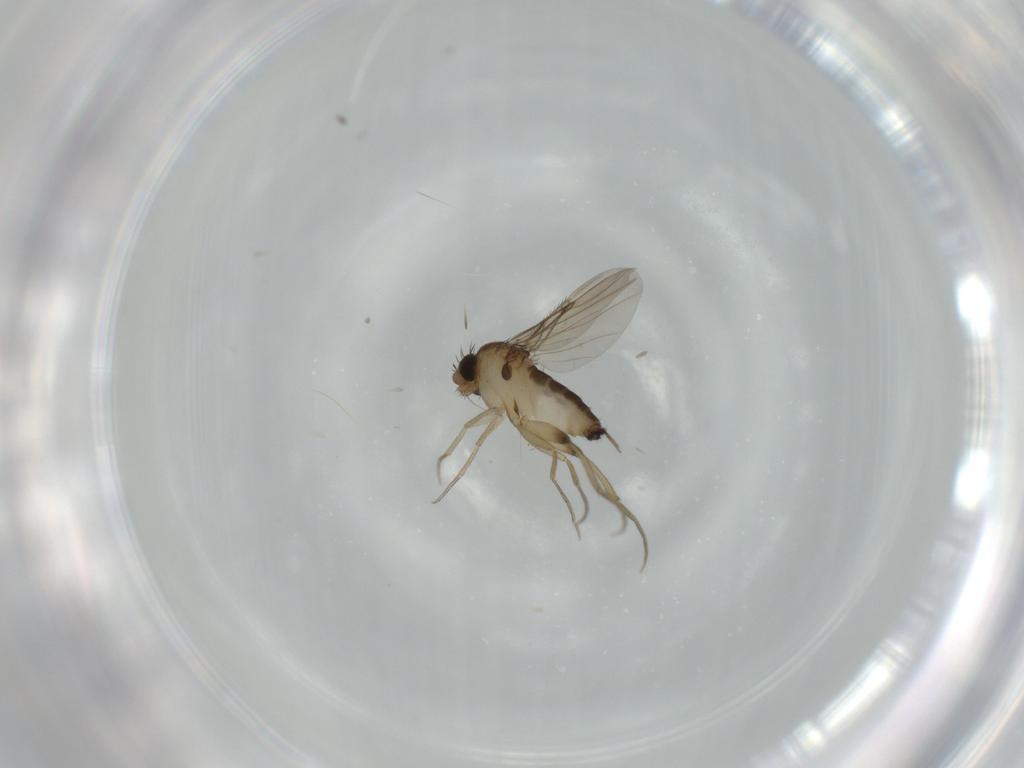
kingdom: Animalia
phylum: Arthropoda
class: Insecta
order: Diptera
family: Phoridae
